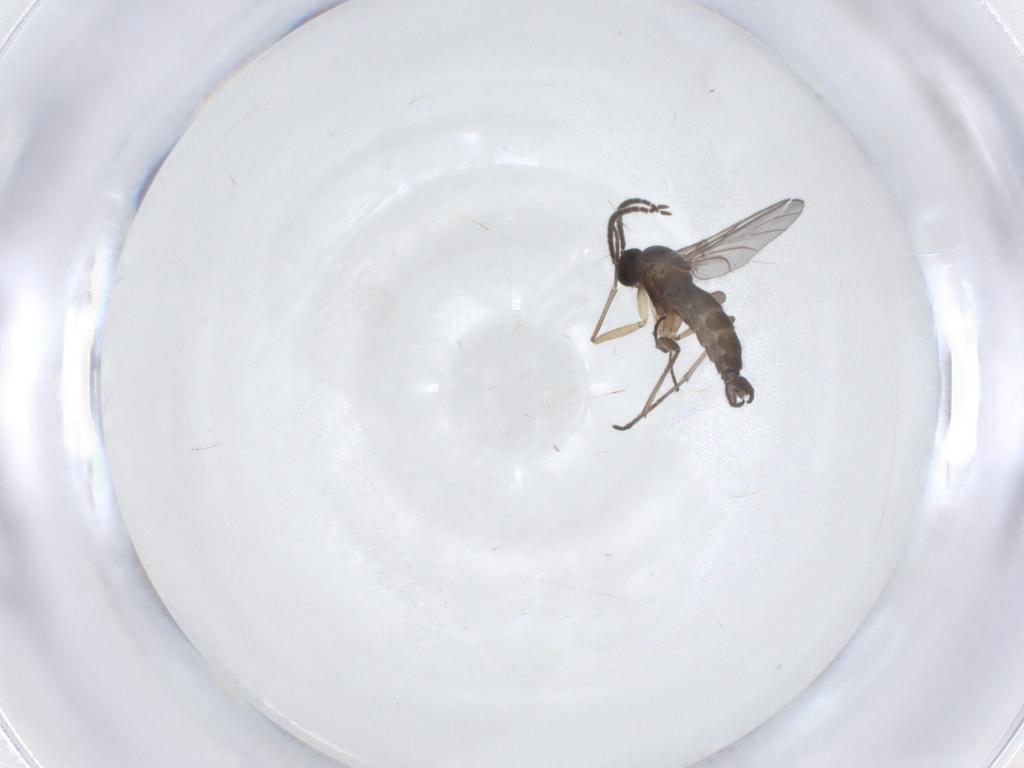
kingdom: Animalia
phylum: Arthropoda
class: Insecta
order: Diptera
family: Sciaridae
